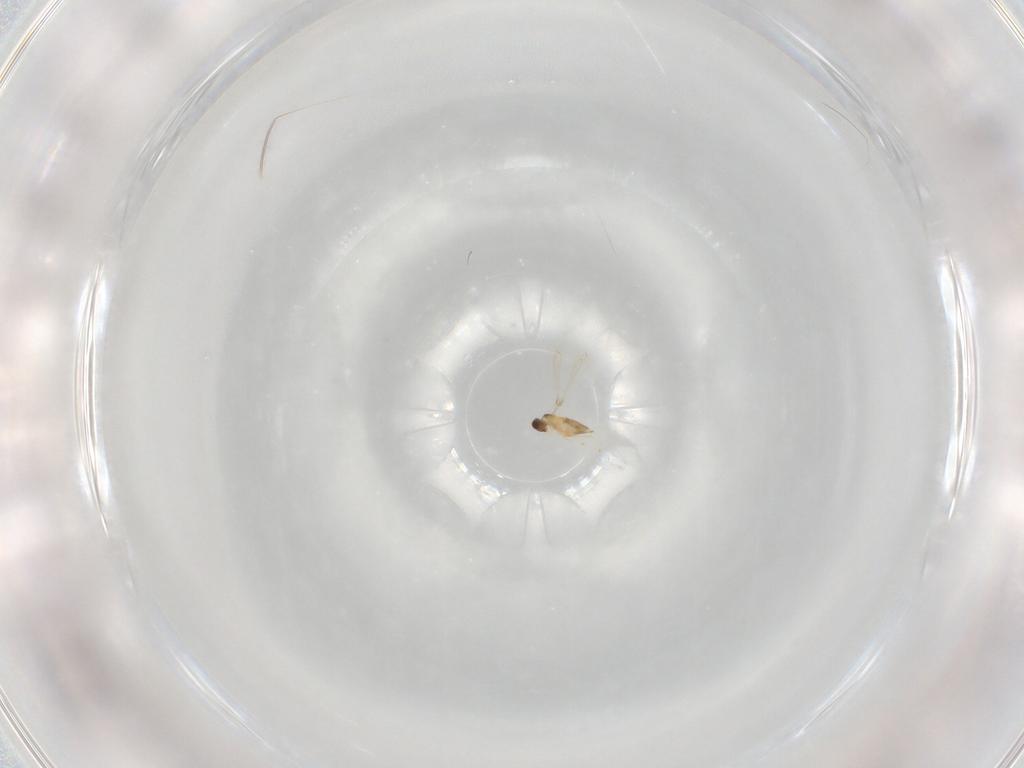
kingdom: Animalia
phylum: Arthropoda
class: Insecta
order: Hymenoptera
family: Mymaridae
